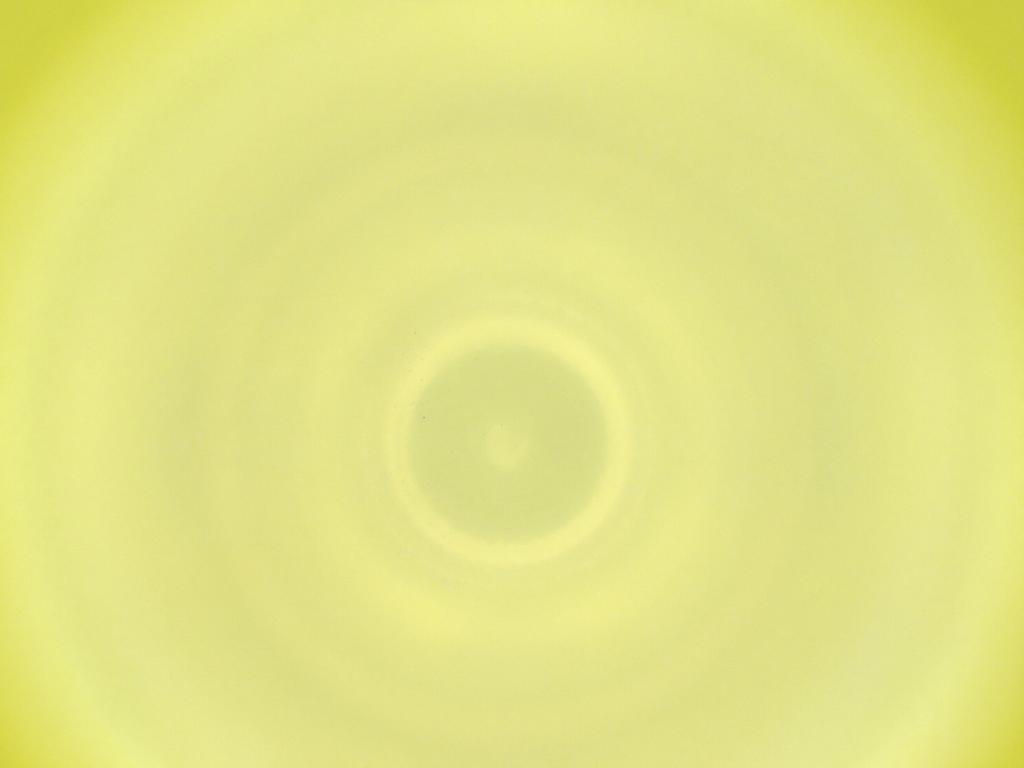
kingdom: Animalia
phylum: Arthropoda
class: Insecta
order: Diptera
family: Cecidomyiidae
